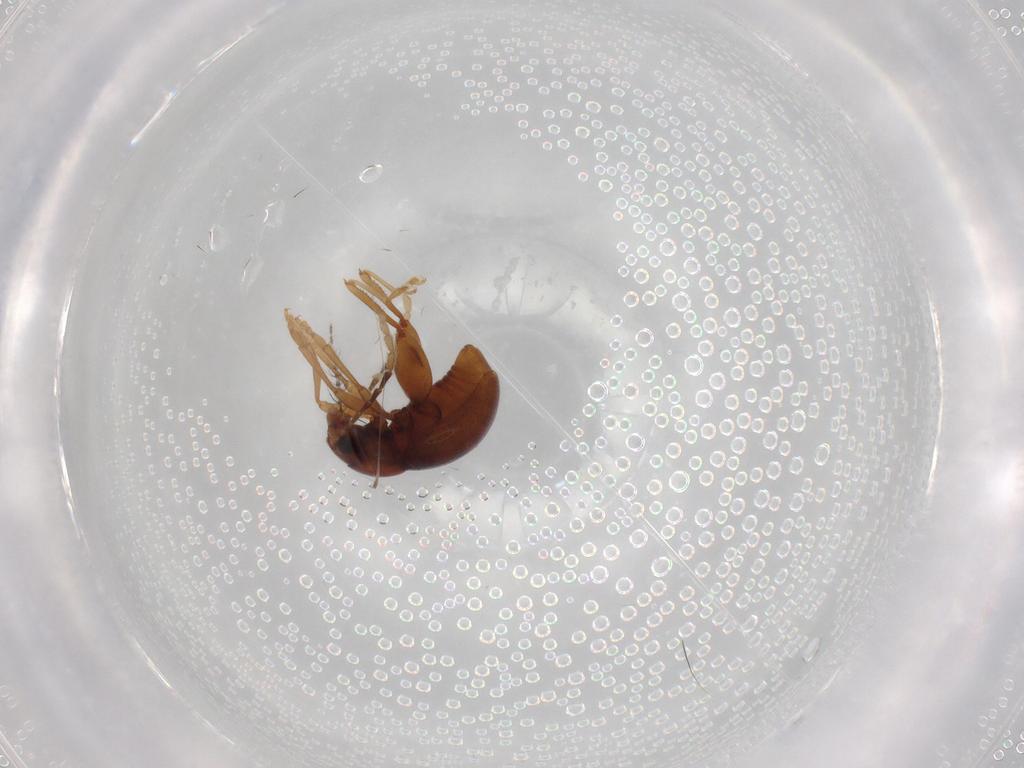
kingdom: Animalia
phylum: Arthropoda
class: Insecta
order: Coleoptera
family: Chrysomelidae
